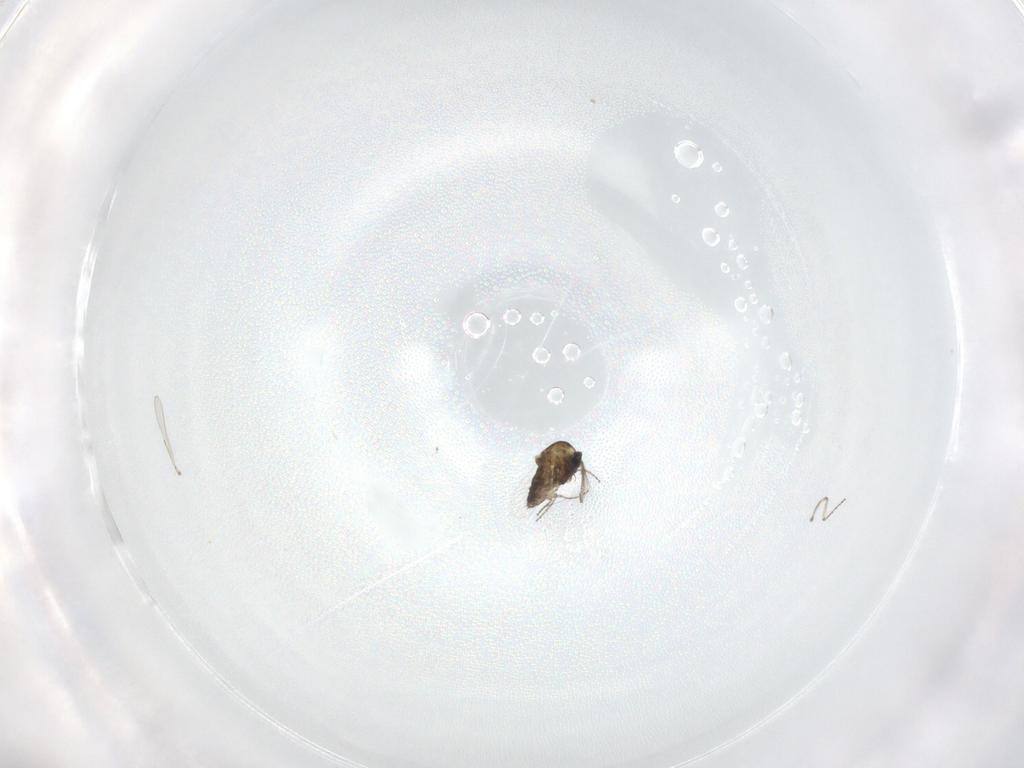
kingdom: Animalia
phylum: Arthropoda
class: Insecta
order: Diptera
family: Ceratopogonidae
